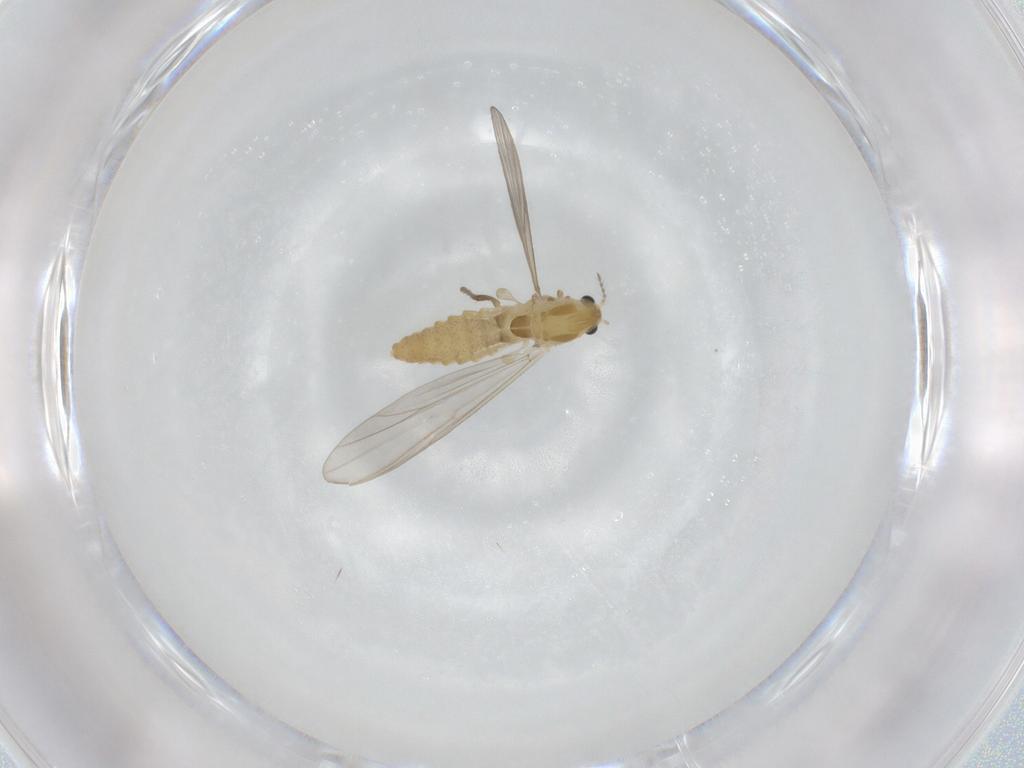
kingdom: Animalia
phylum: Arthropoda
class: Insecta
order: Diptera
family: Chironomidae
